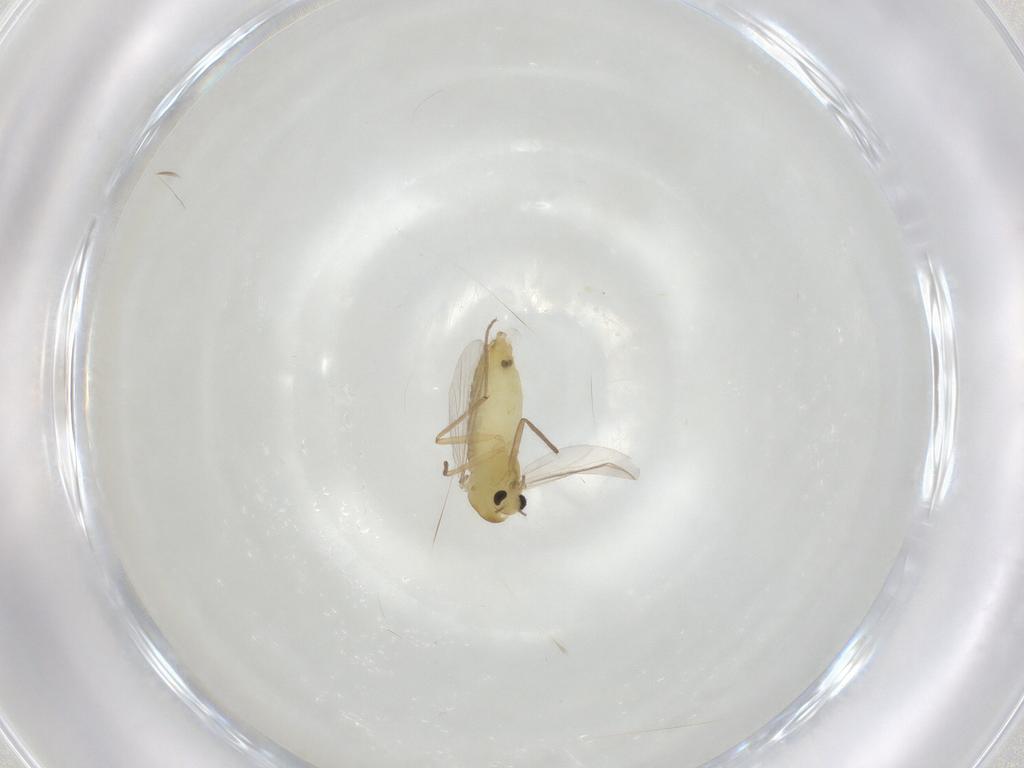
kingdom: Animalia
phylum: Arthropoda
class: Insecta
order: Diptera
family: Chironomidae
